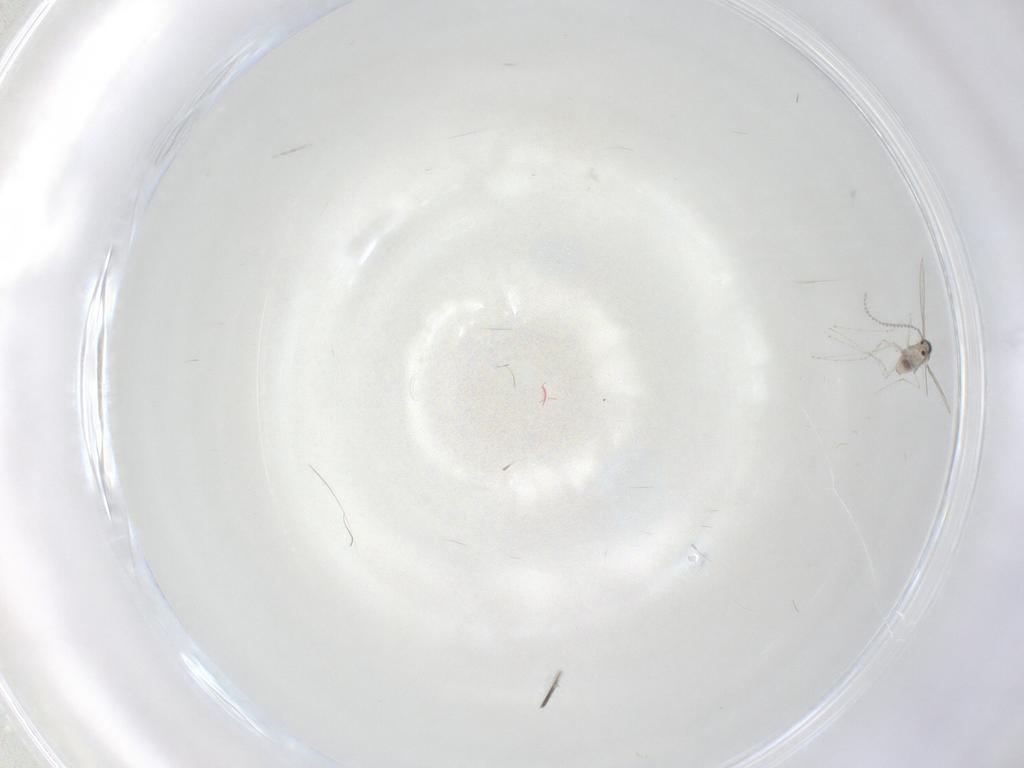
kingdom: Animalia
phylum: Arthropoda
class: Insecta
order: Diptera
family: Cecidomyiidae
